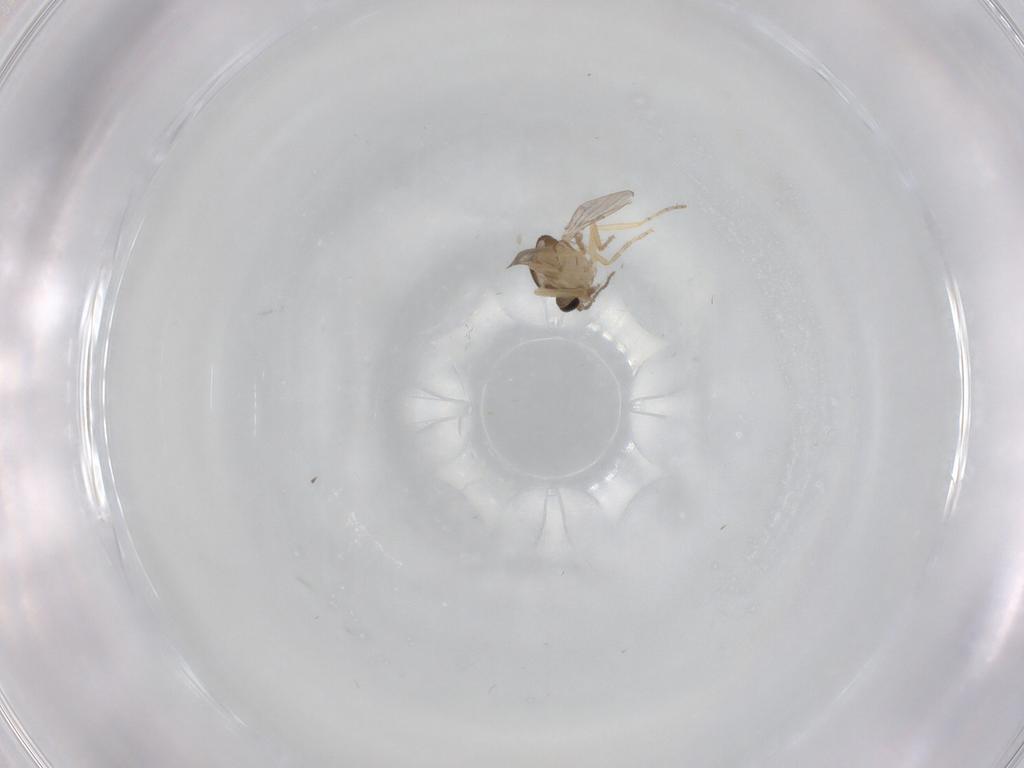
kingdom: Animalia
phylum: Arthropoda
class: Insecta
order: Diptera
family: Ceratopogonidae
